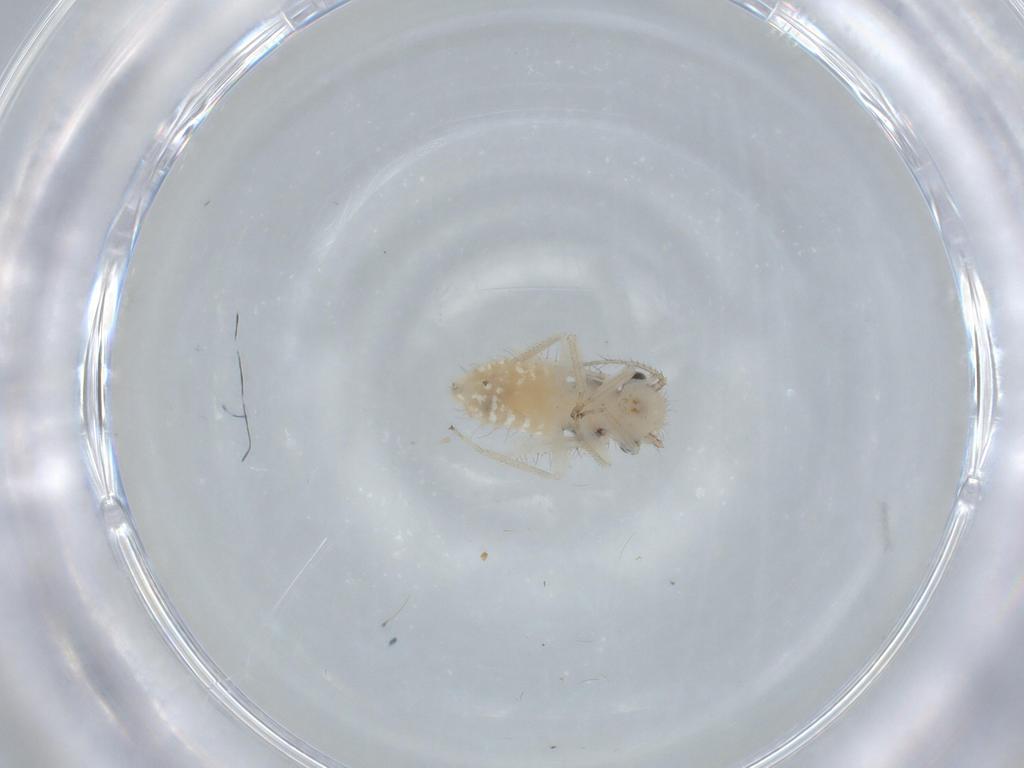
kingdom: Animalia
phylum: Arthropoda
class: Insecta
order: Psocodea
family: Pseudocaeciliidae
